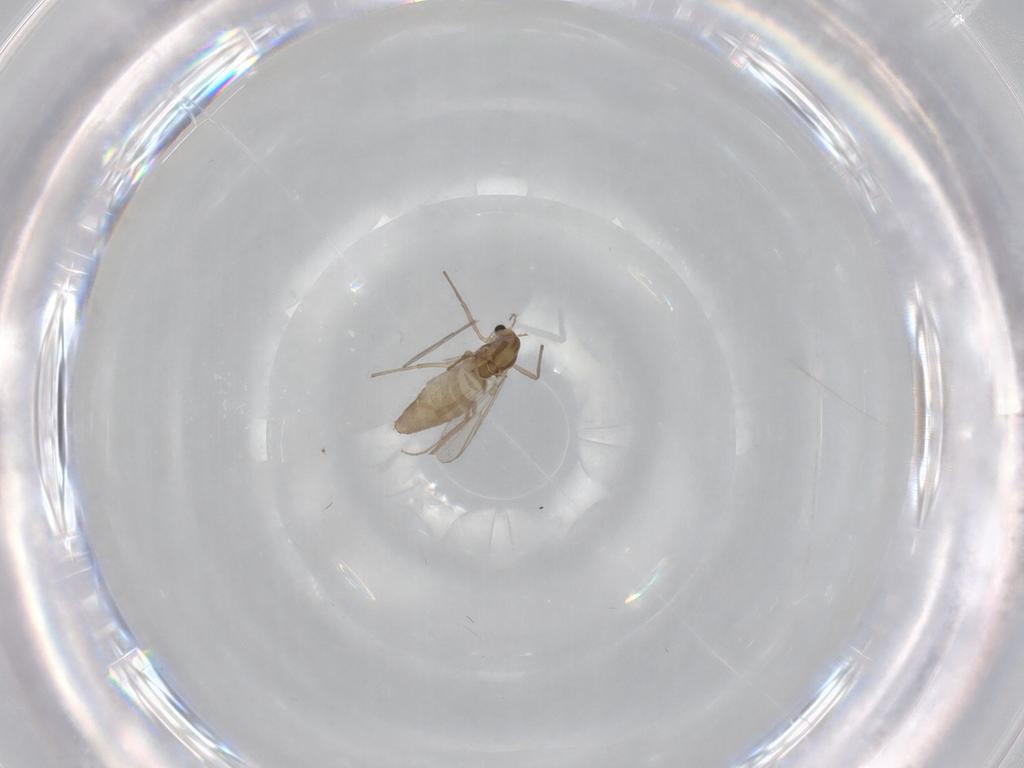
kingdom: Animalia
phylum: Arthropoda
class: Insecta
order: Diptera
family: Chironomidae
